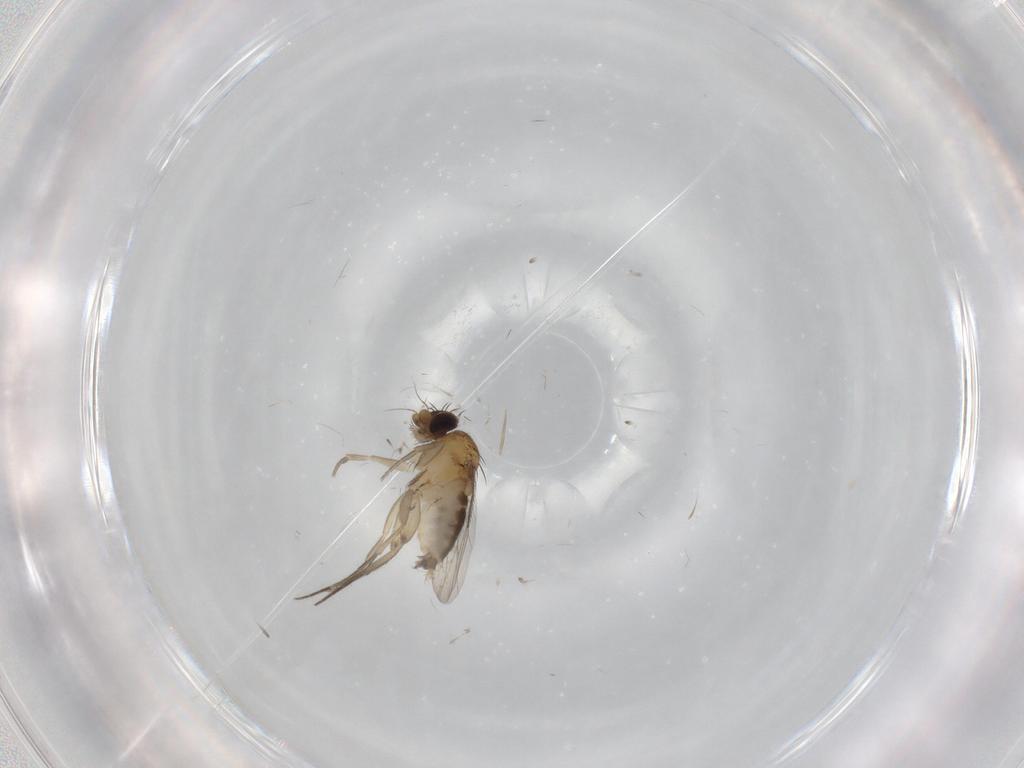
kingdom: Animalia
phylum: Arthropoda
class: Insecta
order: Diptera
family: Phoridae
